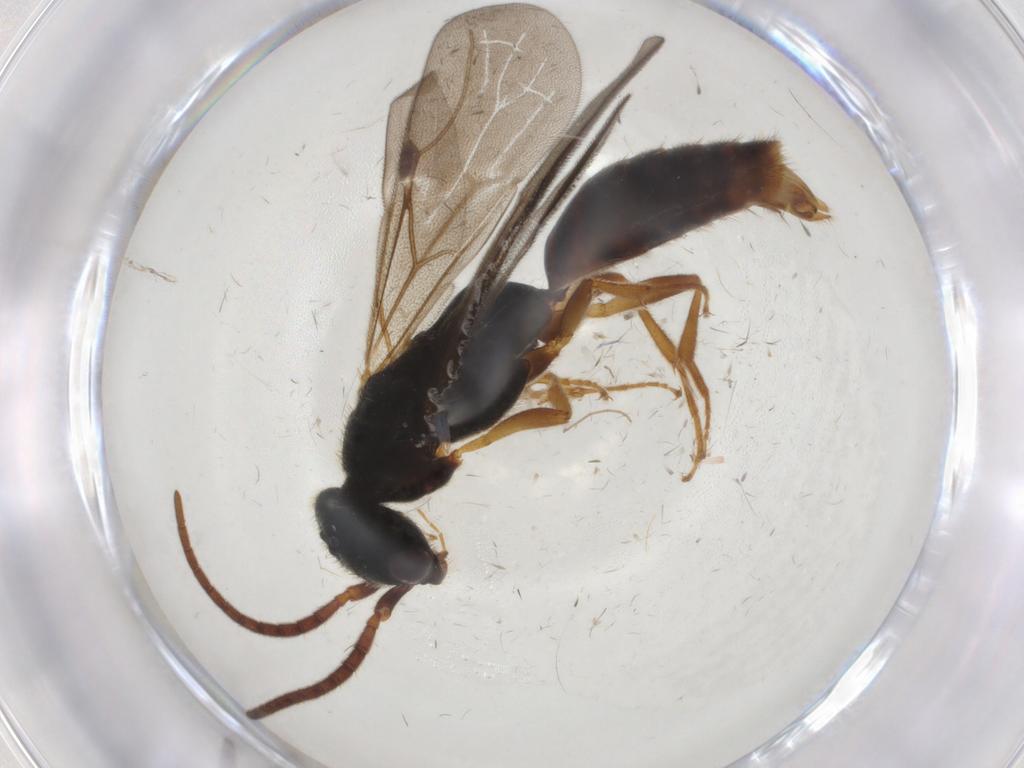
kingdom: Animalia
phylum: Arthropoda
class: Insecta
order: Hymenoptera
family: Bethylidae
